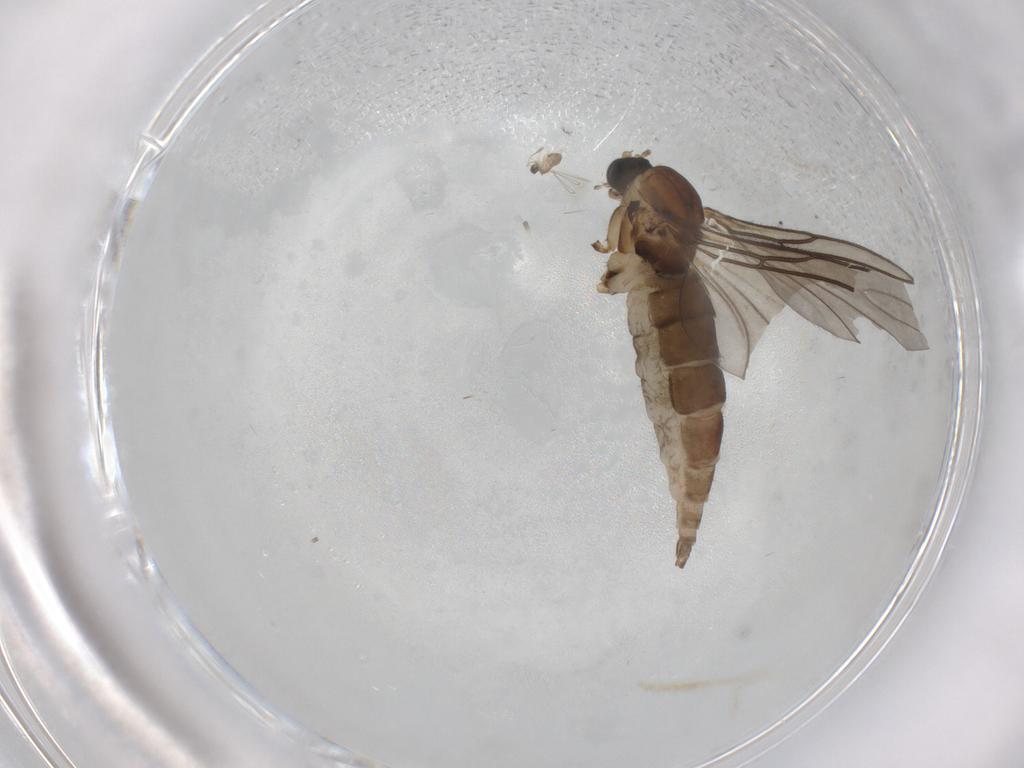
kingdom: Animalia
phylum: Arthropoda
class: Insecta
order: Diptera
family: Sciaridae
